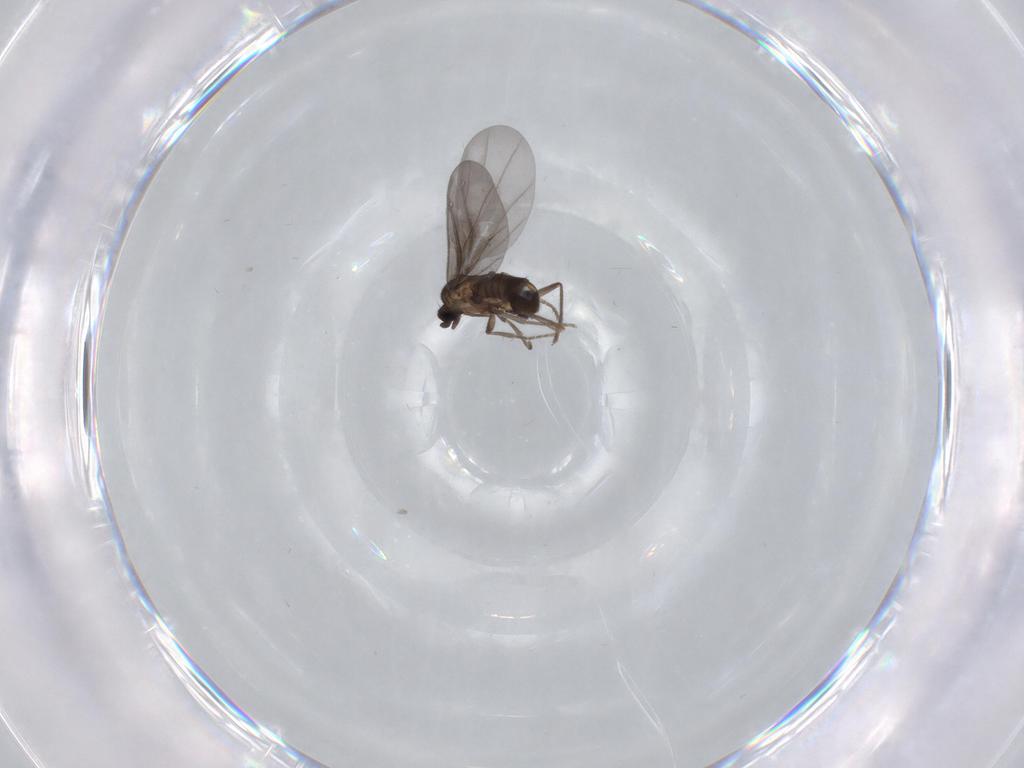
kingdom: Animalia
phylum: Arthropoda
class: Insecta
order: Diptera
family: Phoridae
